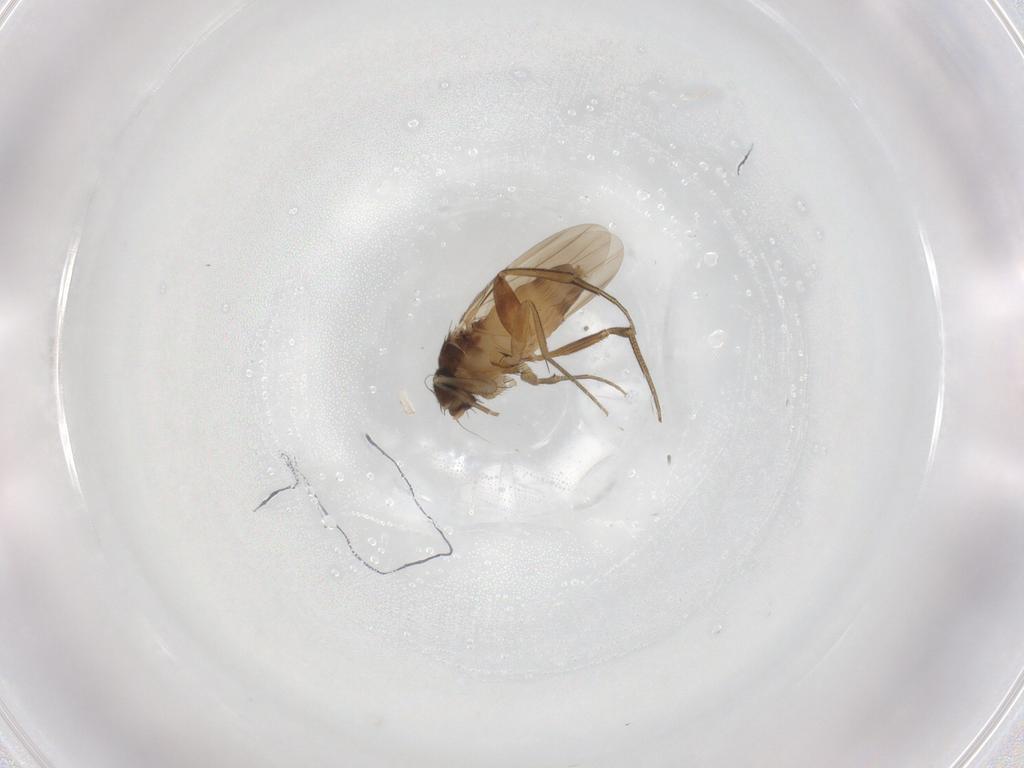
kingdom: Animalia
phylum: Arthropoda
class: Insecta
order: Diptera
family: Phoridae
